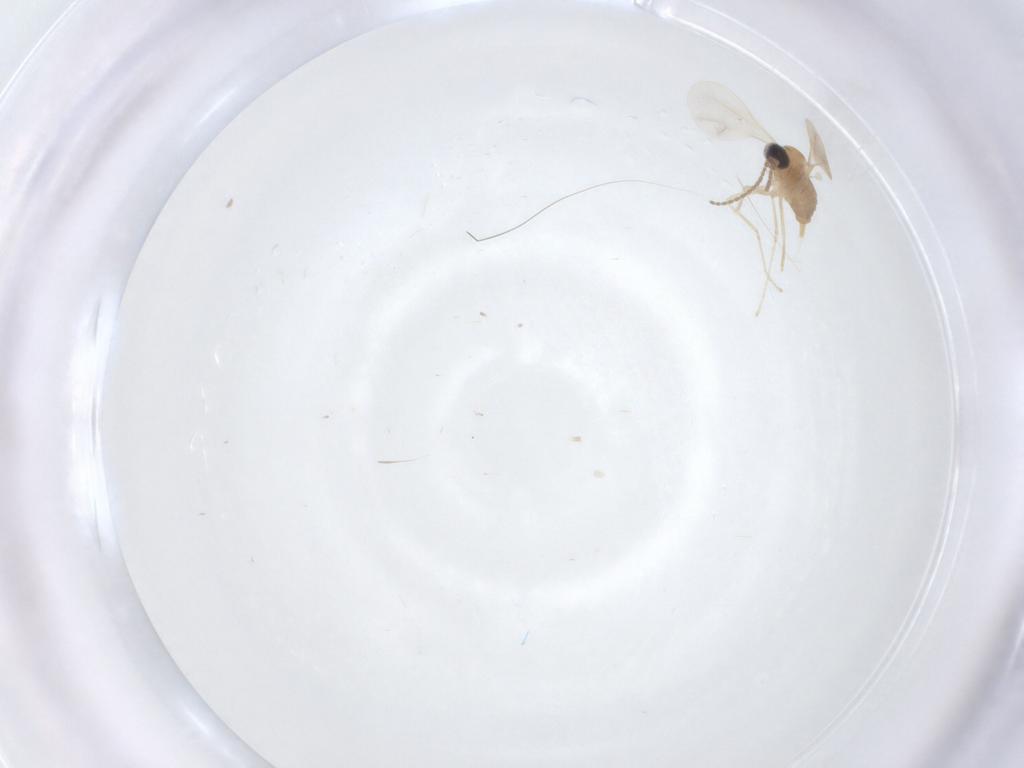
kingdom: Animalia
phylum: Arthropoda
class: Insecta
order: Diptera
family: Cecidomyiidae
